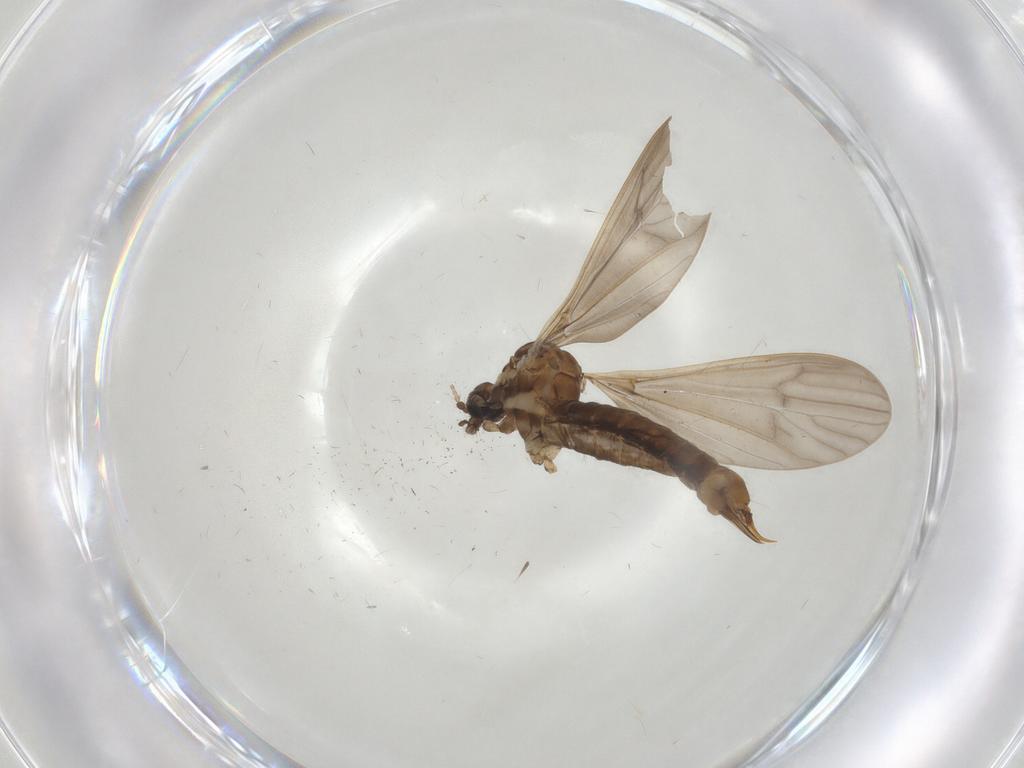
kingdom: Animalia
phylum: Arthropoda
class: Insecta
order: Diptera
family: Limoniidae
